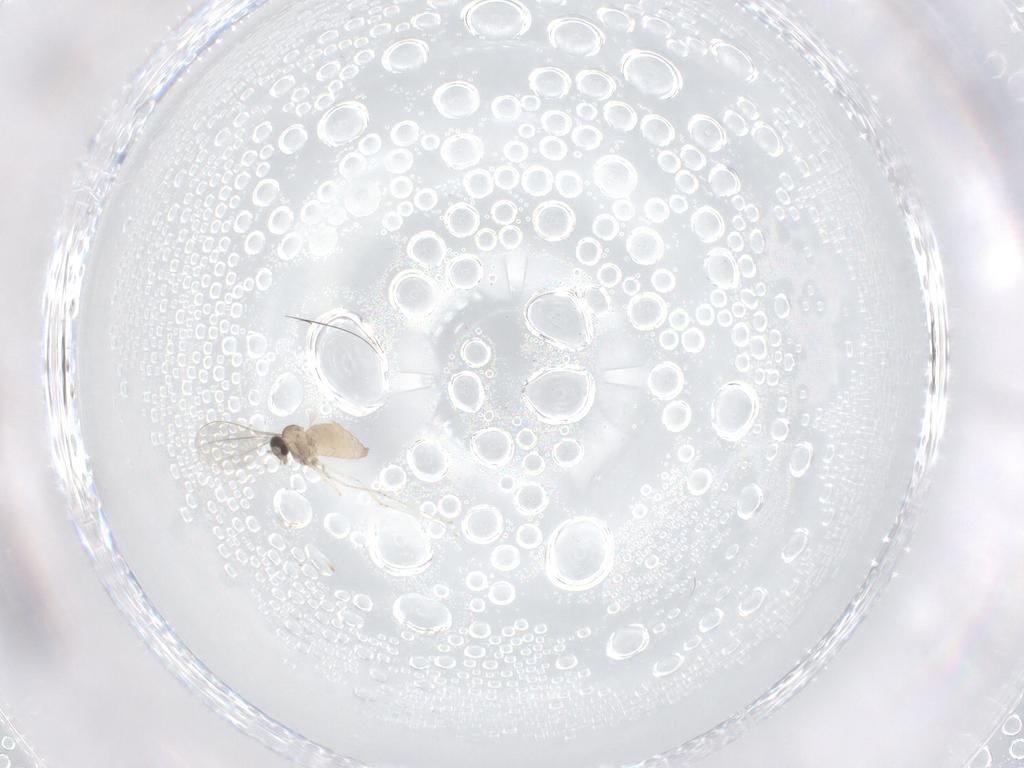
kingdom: Animalia
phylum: Arthropoda
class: Insecta
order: Diptera
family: Cecidomyiidae
